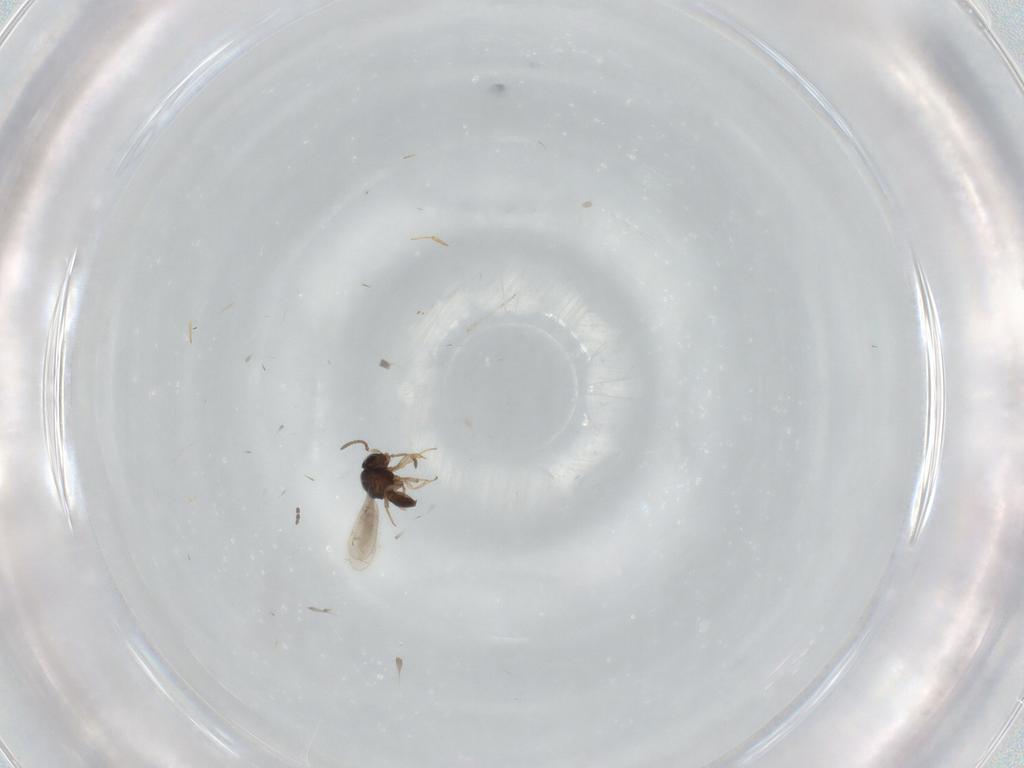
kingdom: Animalia
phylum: Arthropoda
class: Insecta
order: Hymenoptera
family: Scelionidae
